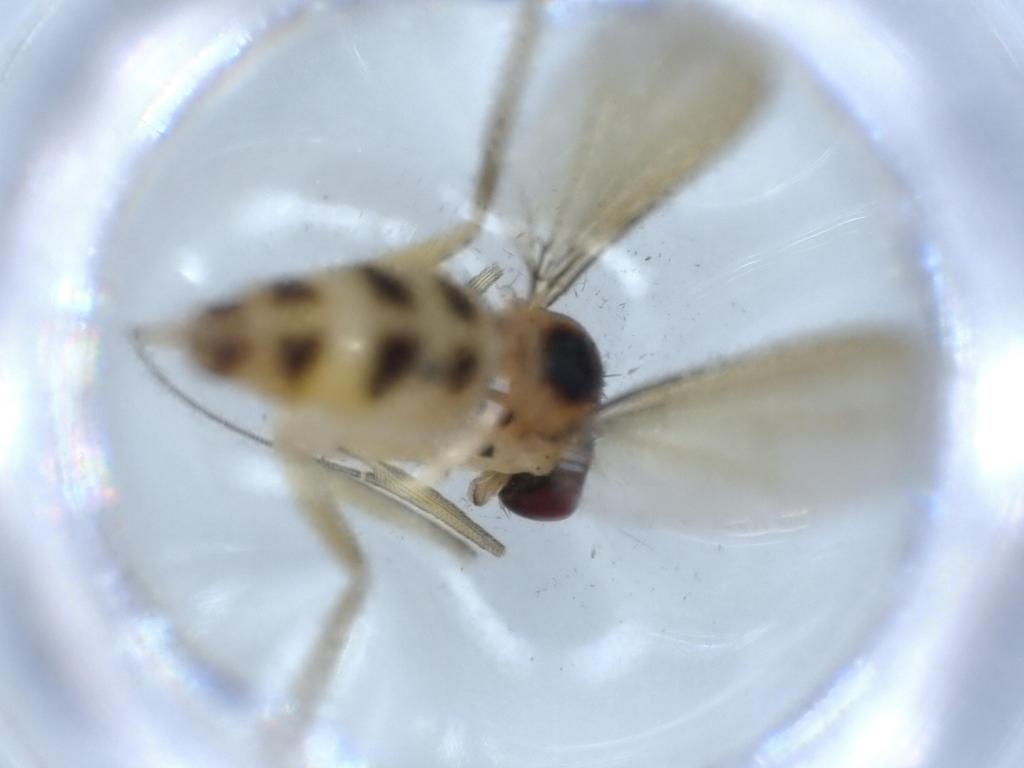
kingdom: Animalia
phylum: Arthropoda
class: Insecta
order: Diptera
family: Dolichopodidae
